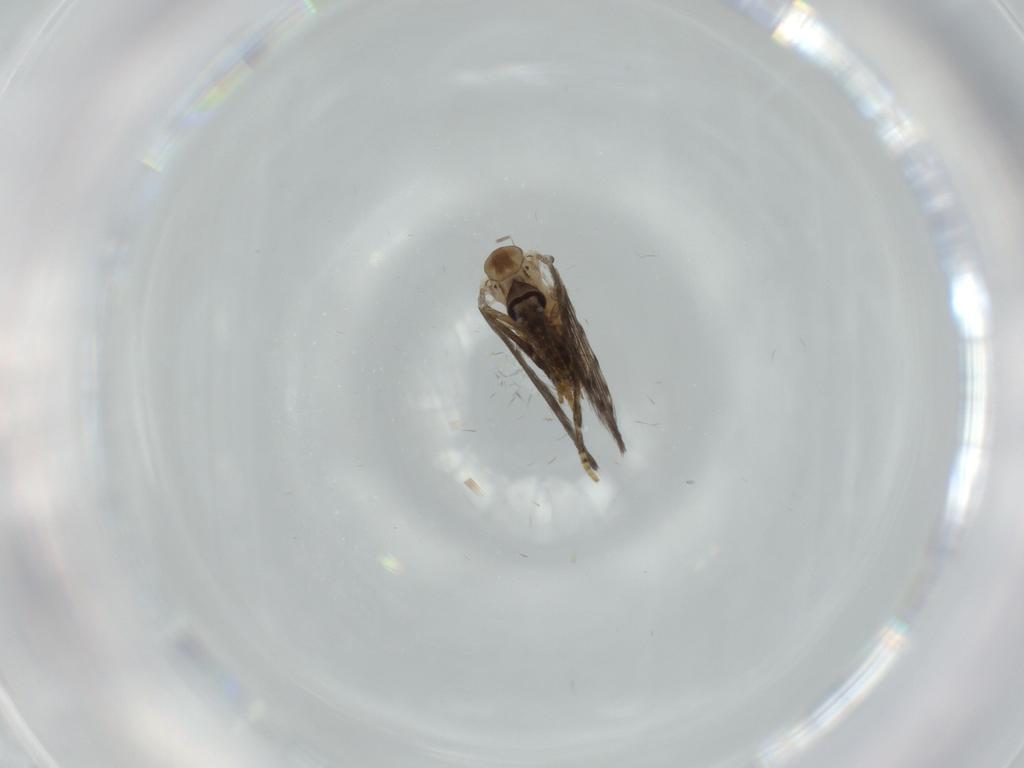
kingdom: Animalia
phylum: Arthropoda
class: Insecta
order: Diptera
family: Psychodidae
